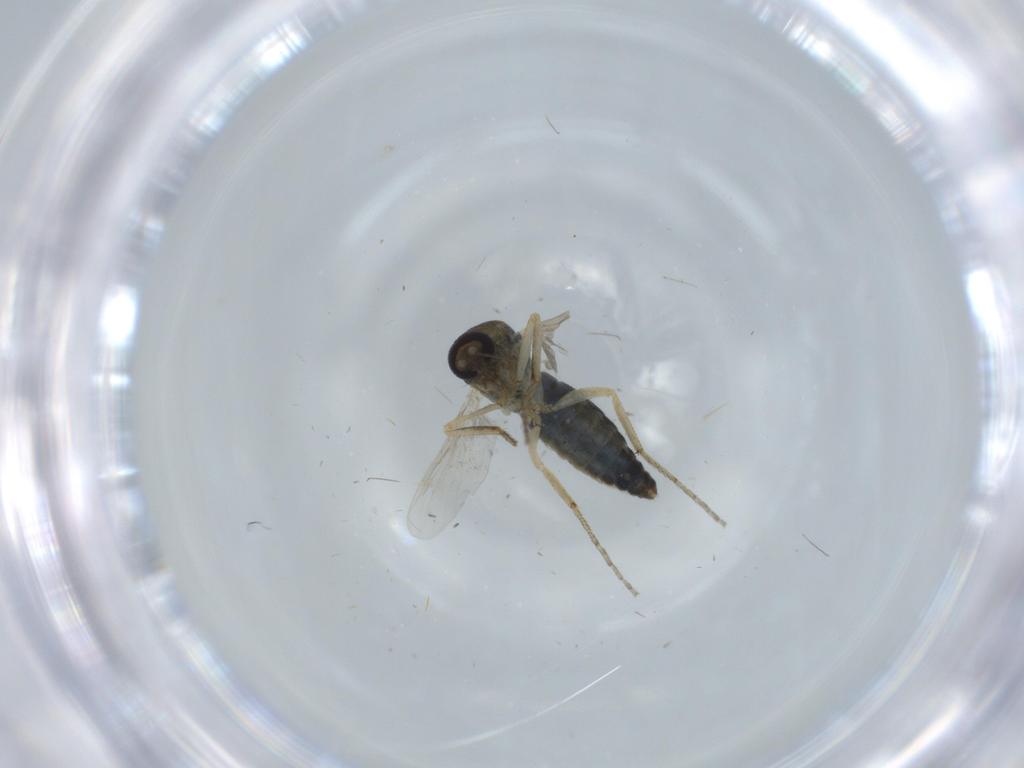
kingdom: Animalia
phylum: Arthropoda
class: Insecta
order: Diptera
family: Ceratopogonidae
